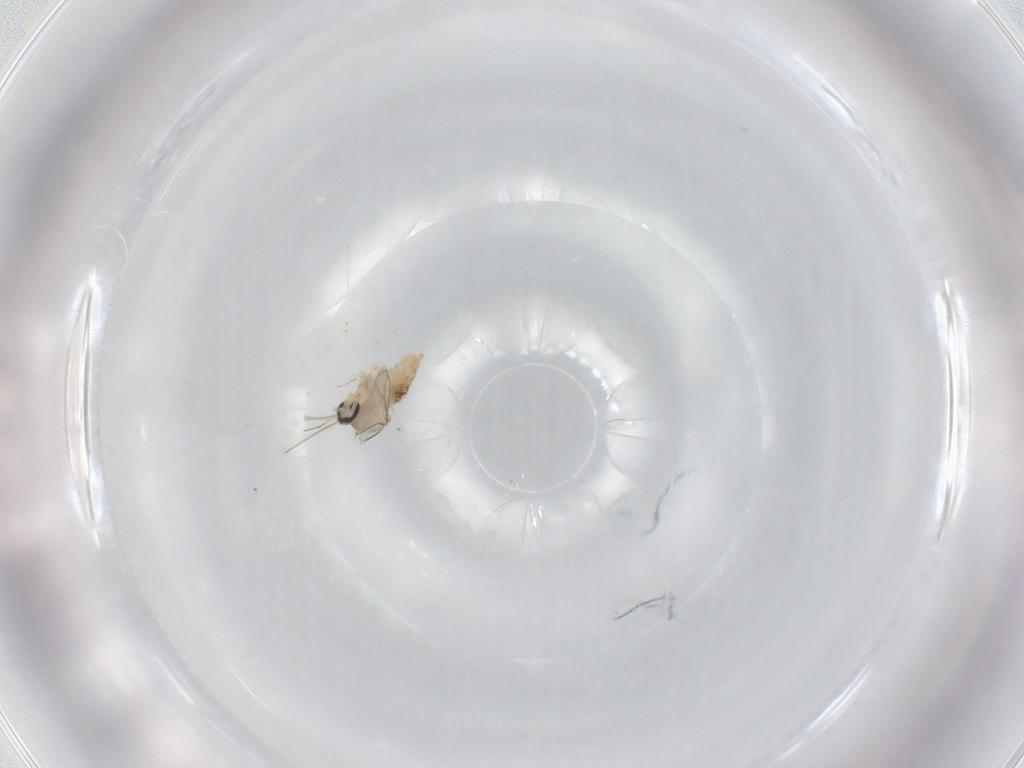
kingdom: Animalia
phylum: Arthropoda
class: Insecta
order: Diptera
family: Cecidomyiidae
